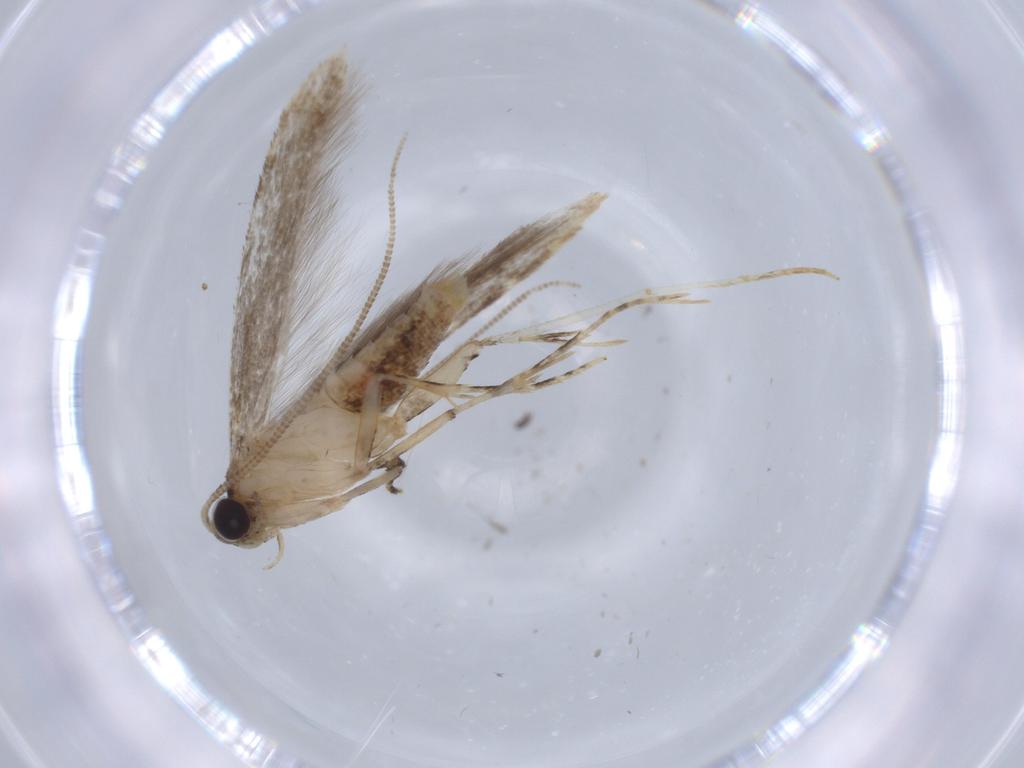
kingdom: Animalia
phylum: Arthropoda
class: Insecta
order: Lepidoptera
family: Tineidae
